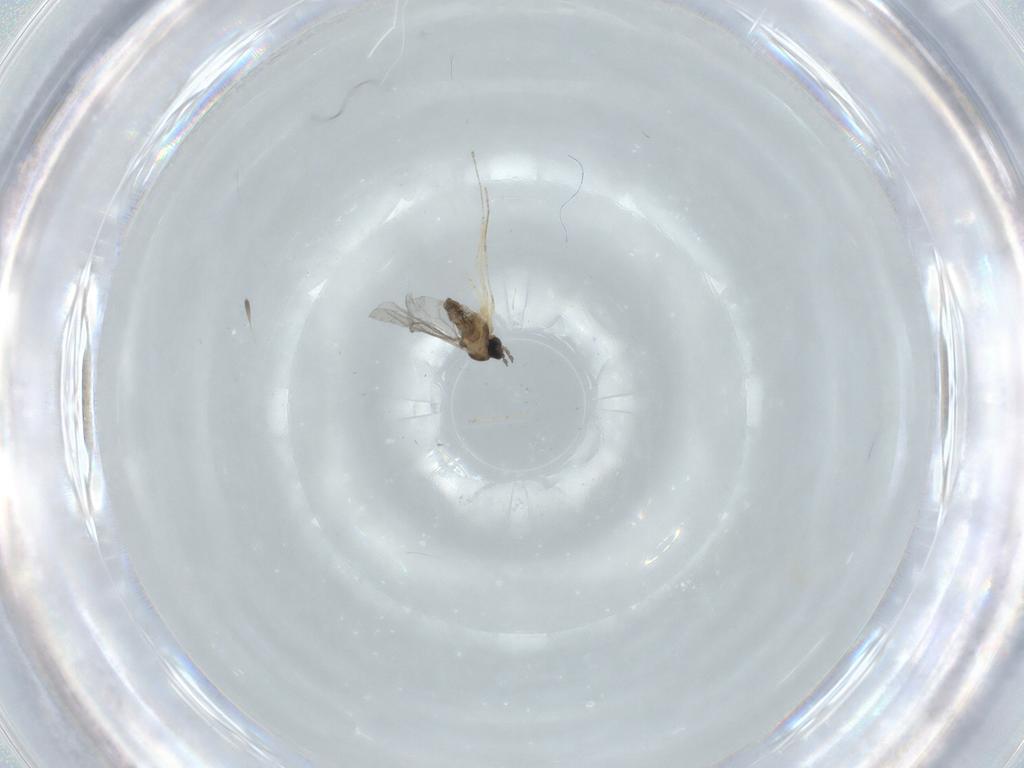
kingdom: Animalia
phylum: Arthropoda
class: Insecta
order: Diptera
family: Cecidomyiidae
